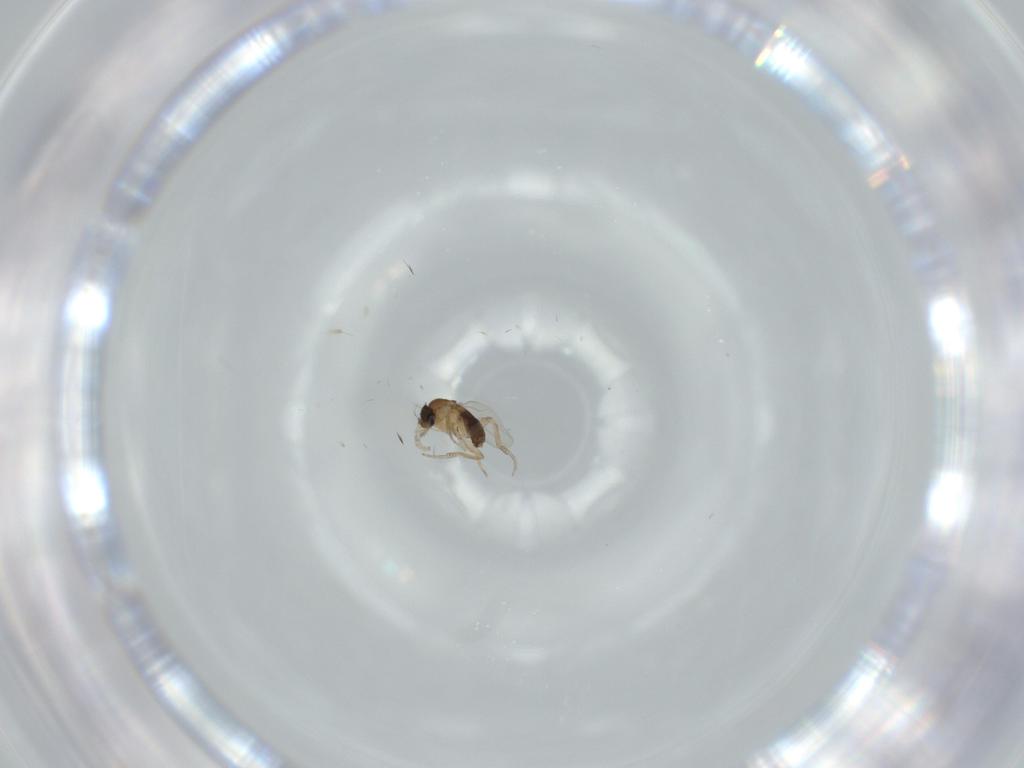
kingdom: Animalia
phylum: Arthropoda
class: Insecta
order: Diptera
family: Phoridae
